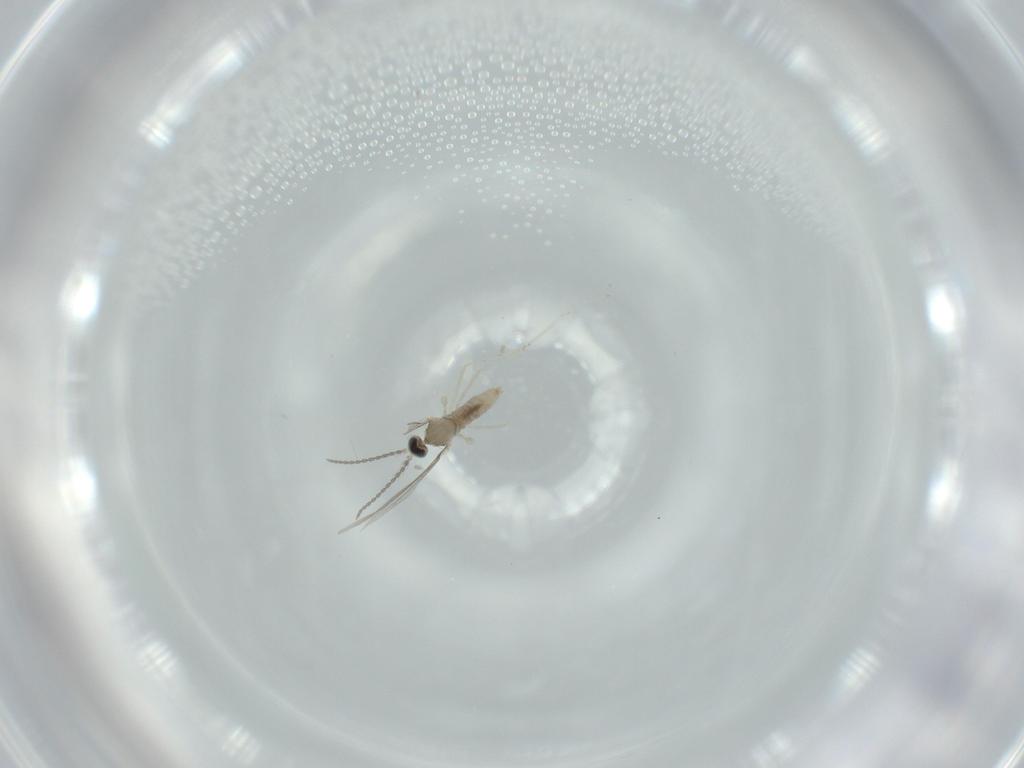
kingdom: Animalia
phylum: Arthropoda
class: Insecta
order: Diptera
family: Cecidomyiidae
